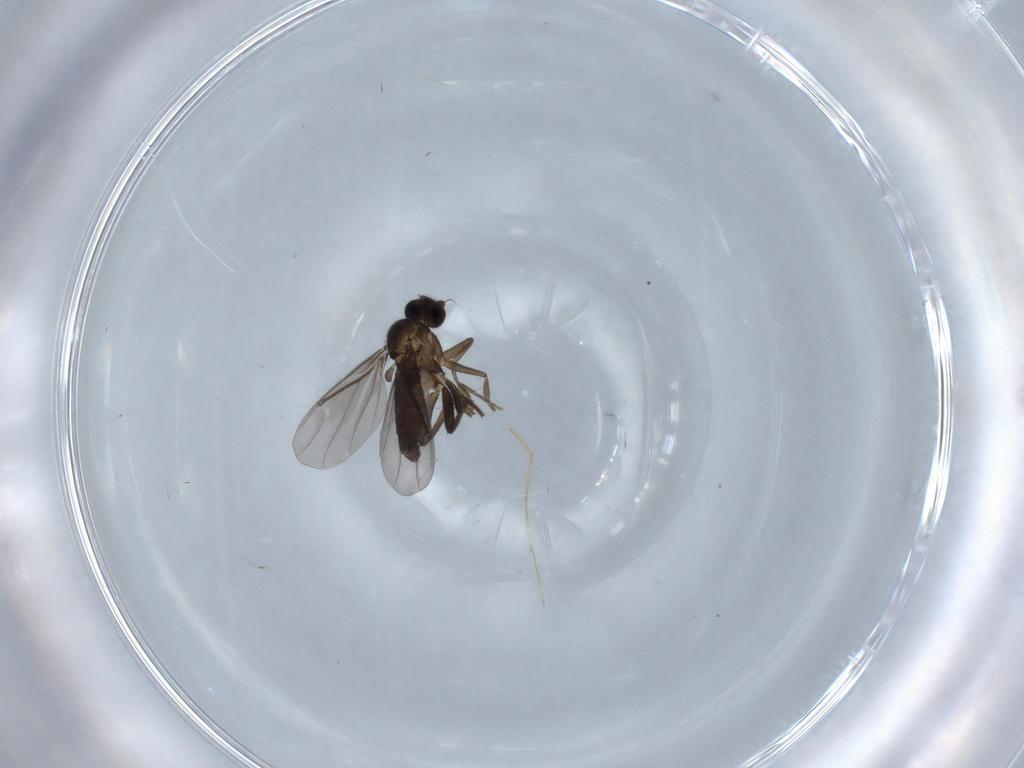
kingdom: Animalia
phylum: Arthropoda
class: Insecta
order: Diptera
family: Phoridae
